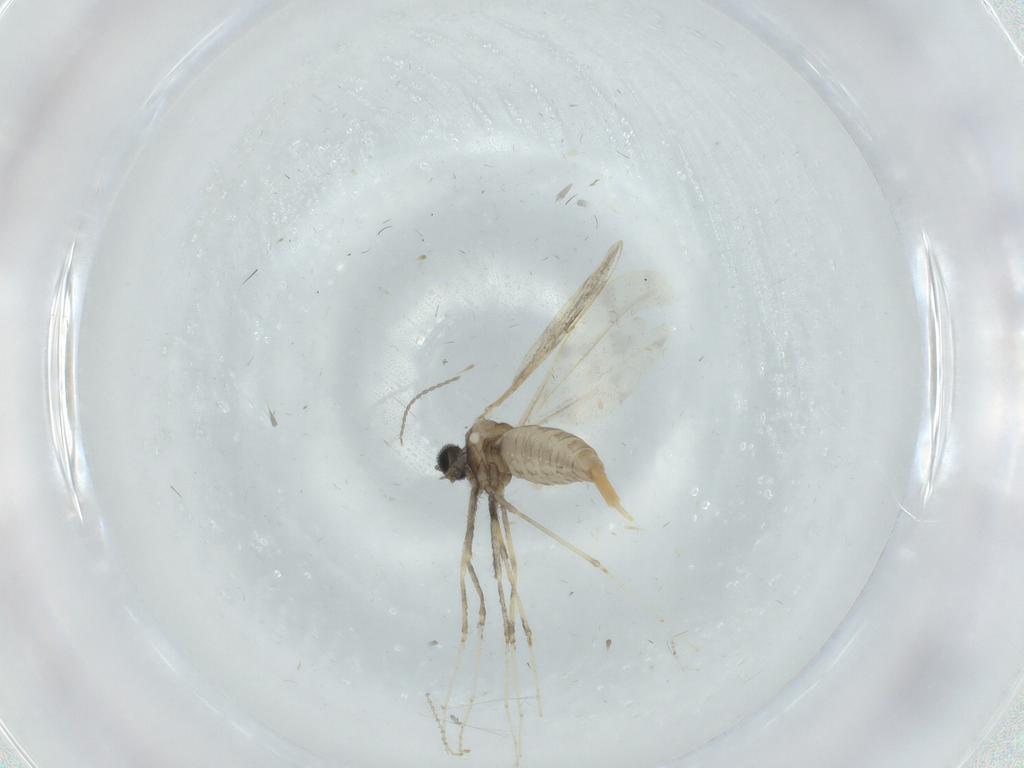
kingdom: Animalia
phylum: Arthropoda
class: Insecta
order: Diptera
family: Cecidomyiidae
